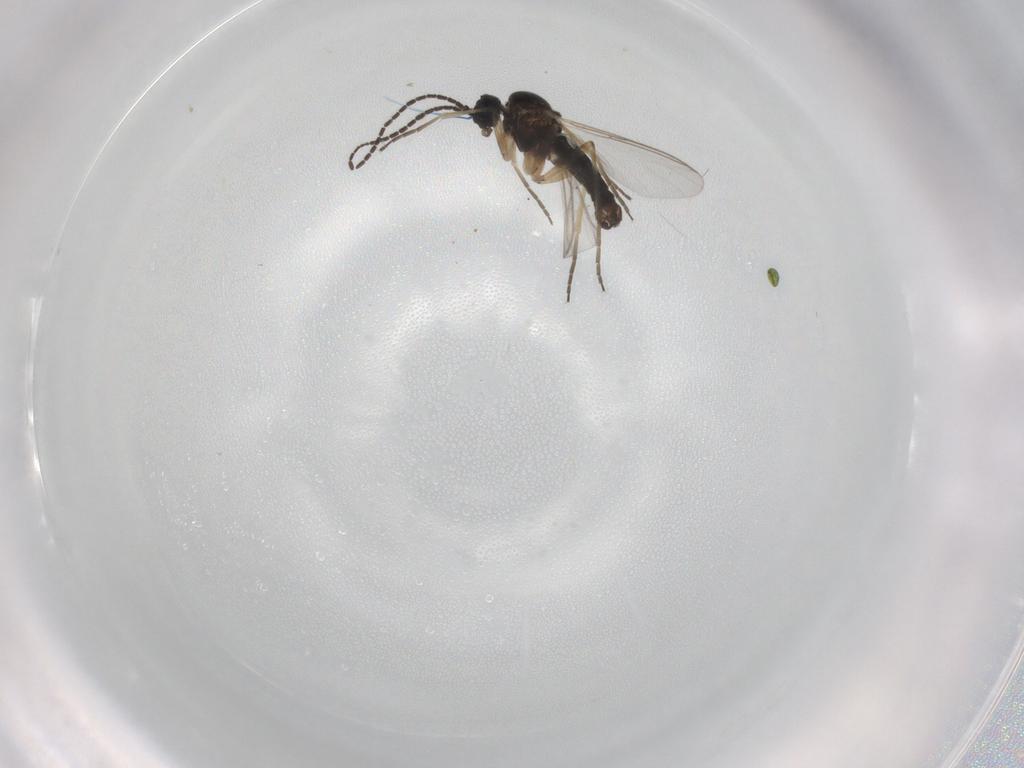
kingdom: Animalia
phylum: Arthropoda
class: Insecta
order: Diptera
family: Sciaridae
